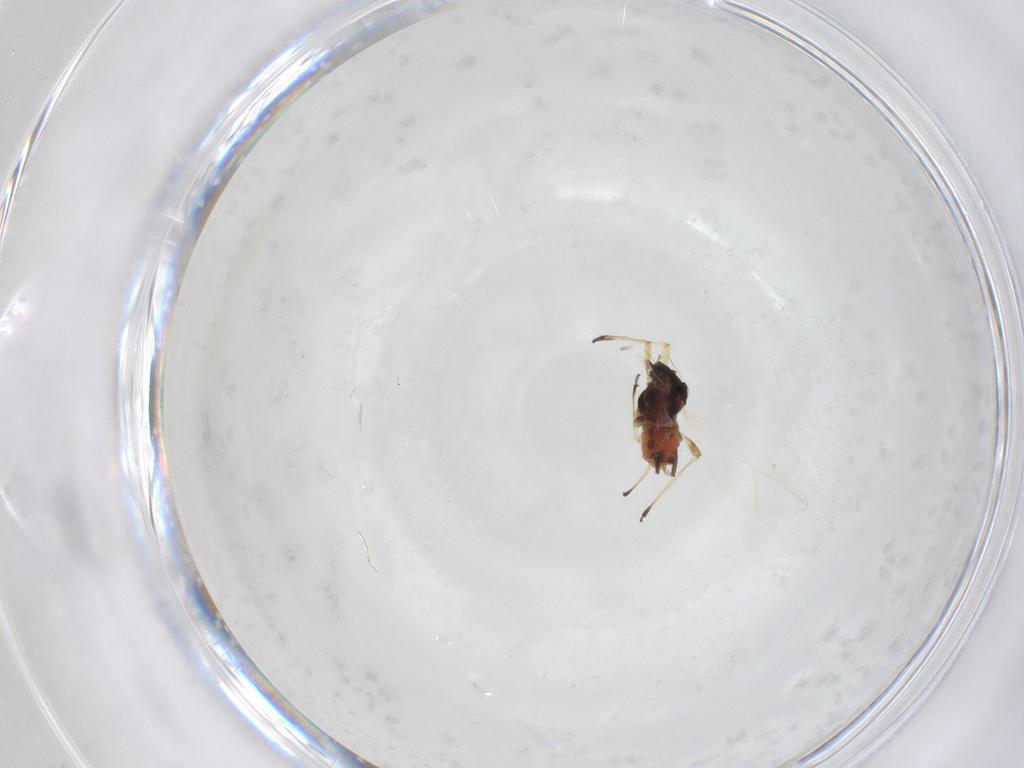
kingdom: Animalia
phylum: Arthropoda
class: Insecta
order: Hemiptera
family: Aphididae
